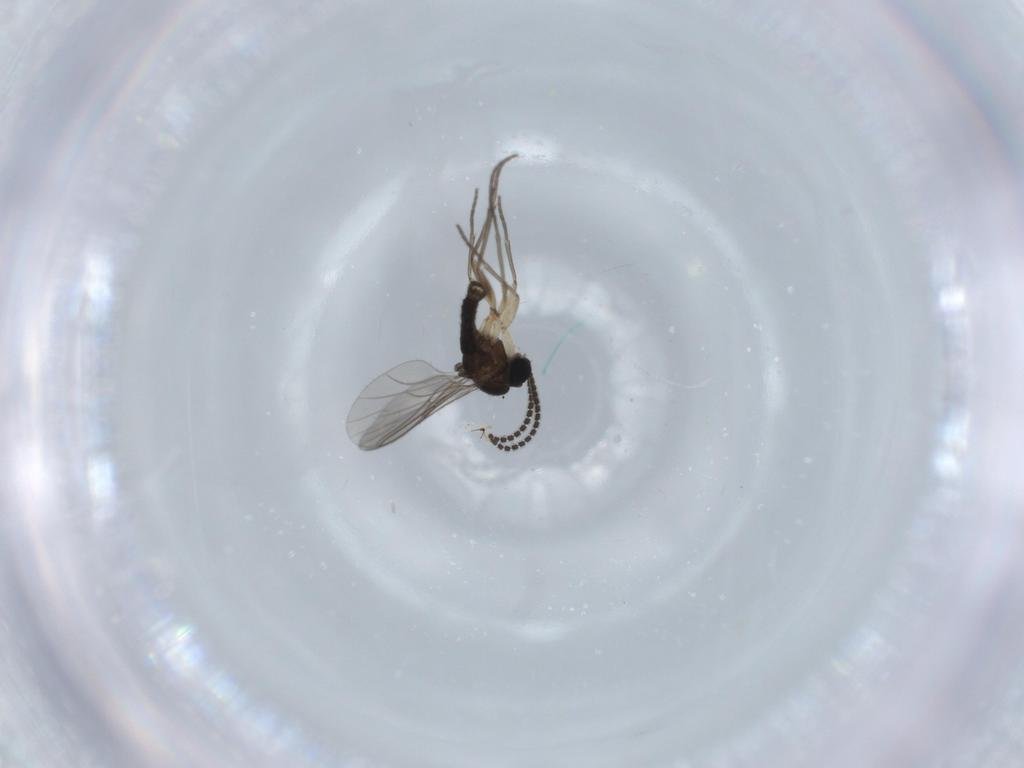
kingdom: Animalia
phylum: Arthropoda
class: Insecta
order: Diptera
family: Sciaridae
